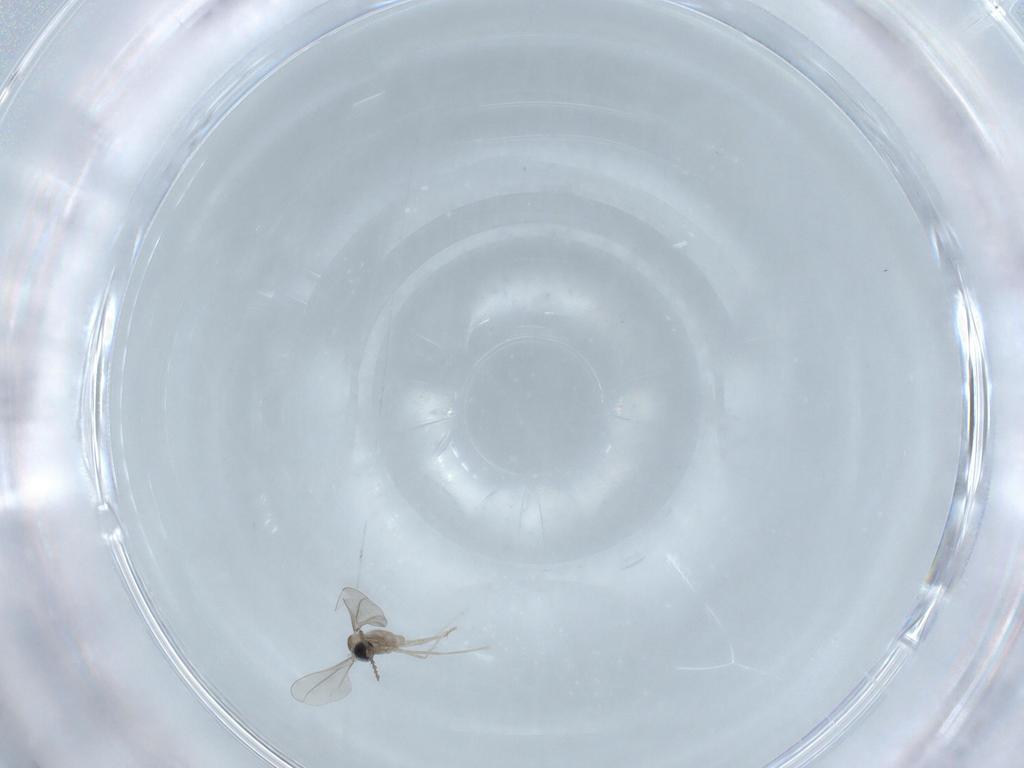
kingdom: Animalia
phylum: Arthropoda
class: Insecta
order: Diptera
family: Cecidomyiidae
